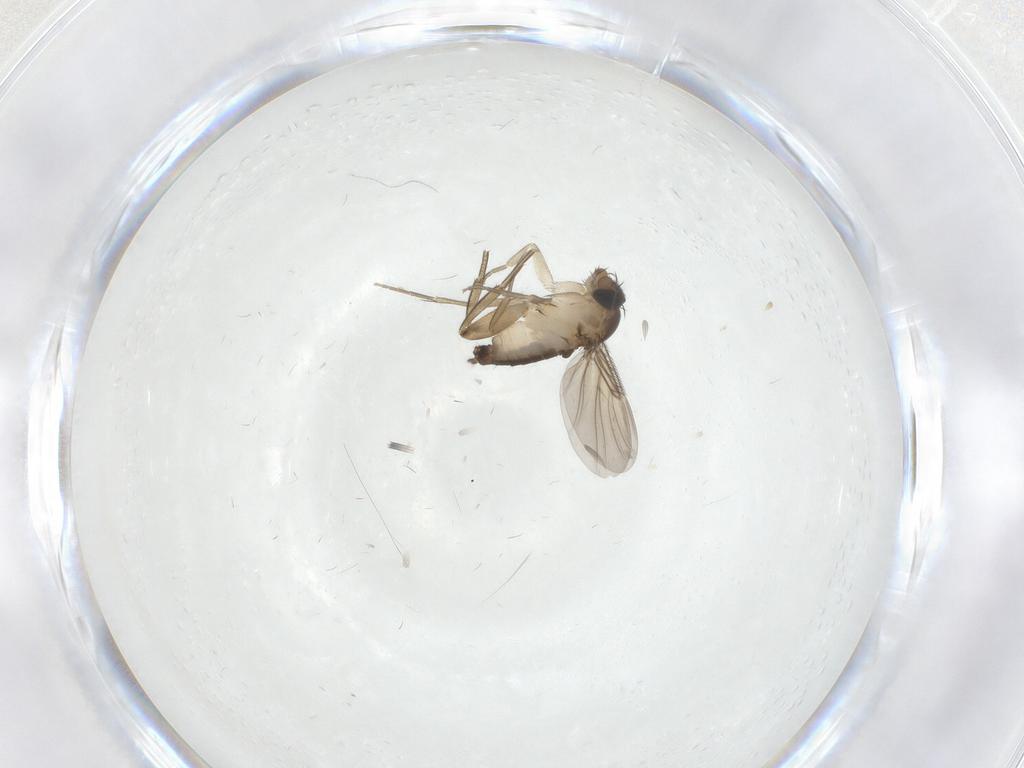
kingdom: Animalia
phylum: Arthropoda
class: Insecta
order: Diptera
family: Phoridae
